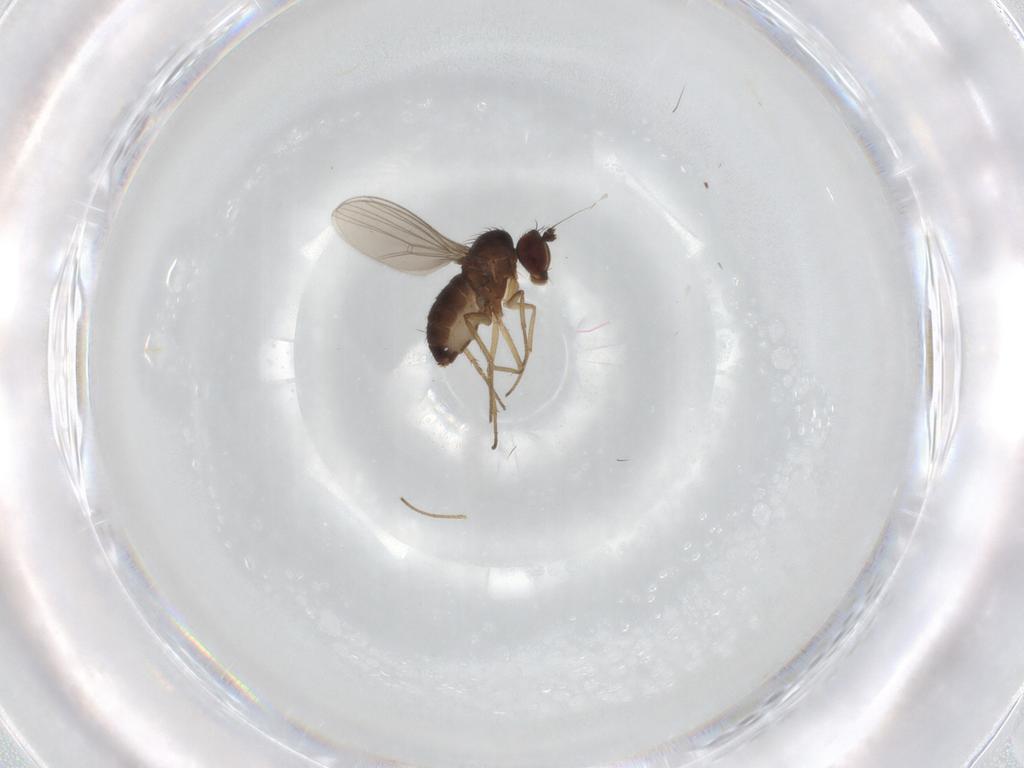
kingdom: Animalia
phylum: Arthropoda
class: Insecta
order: Diptera
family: Dolichopodidae
